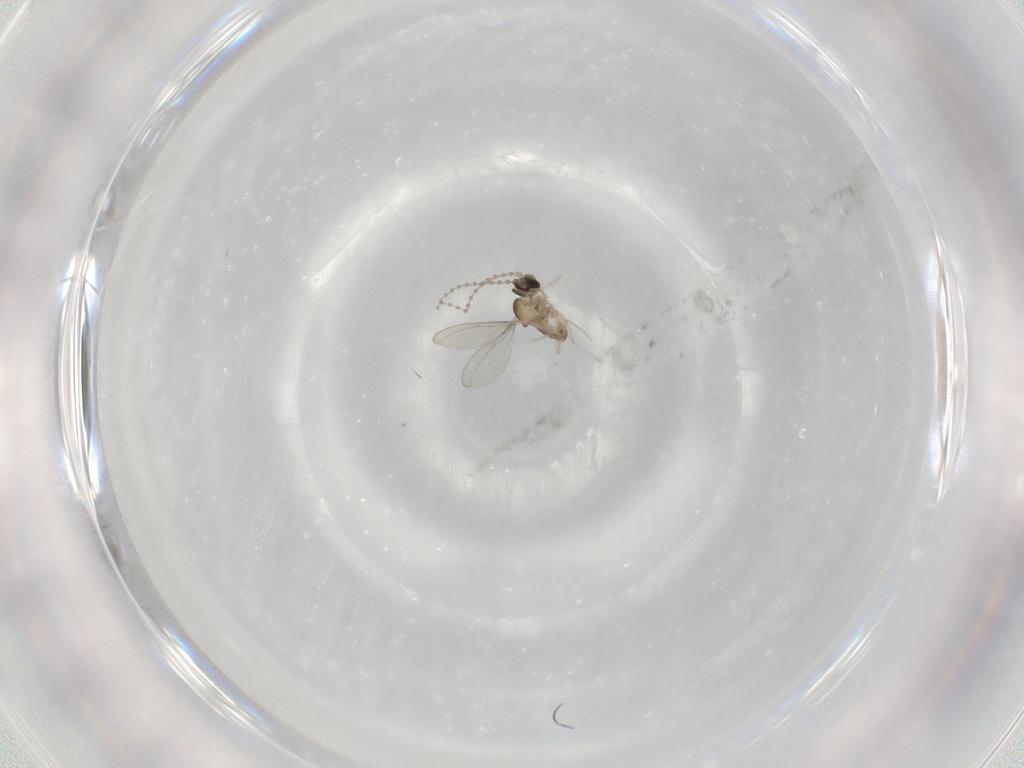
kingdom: Animalia
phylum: Arthropoda
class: Insecta
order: Diptera
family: Cecidomyiidae
